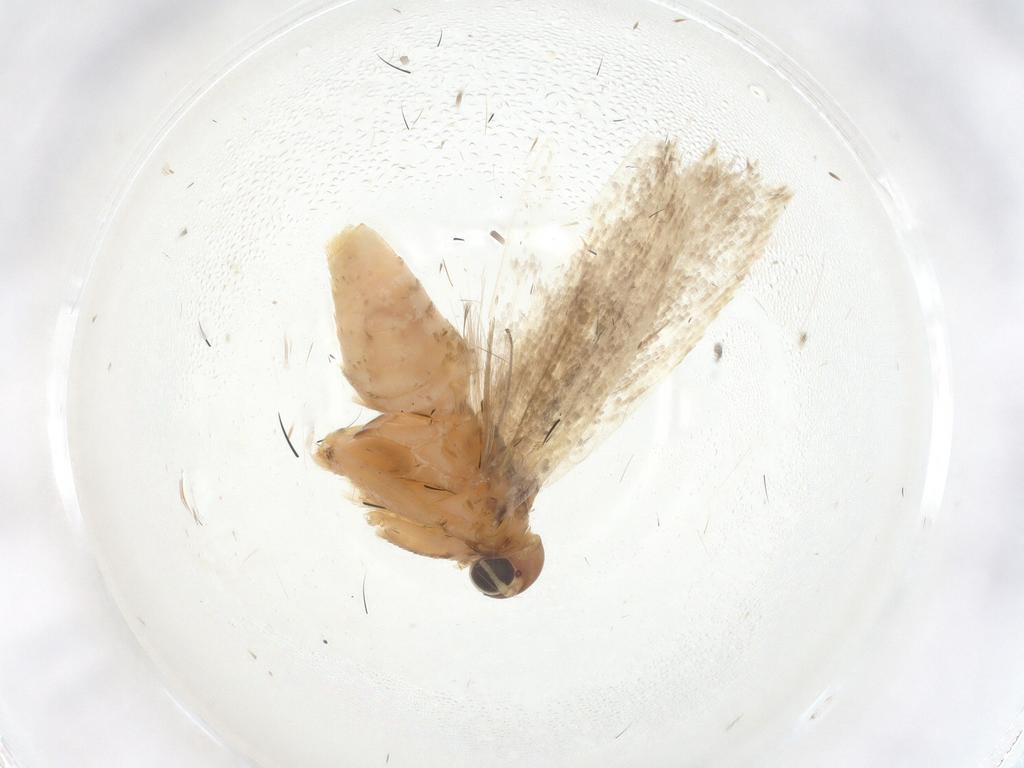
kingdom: Animalia
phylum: Arthropoda
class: Insecta
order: Lepidoptera
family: Gelechiidae
